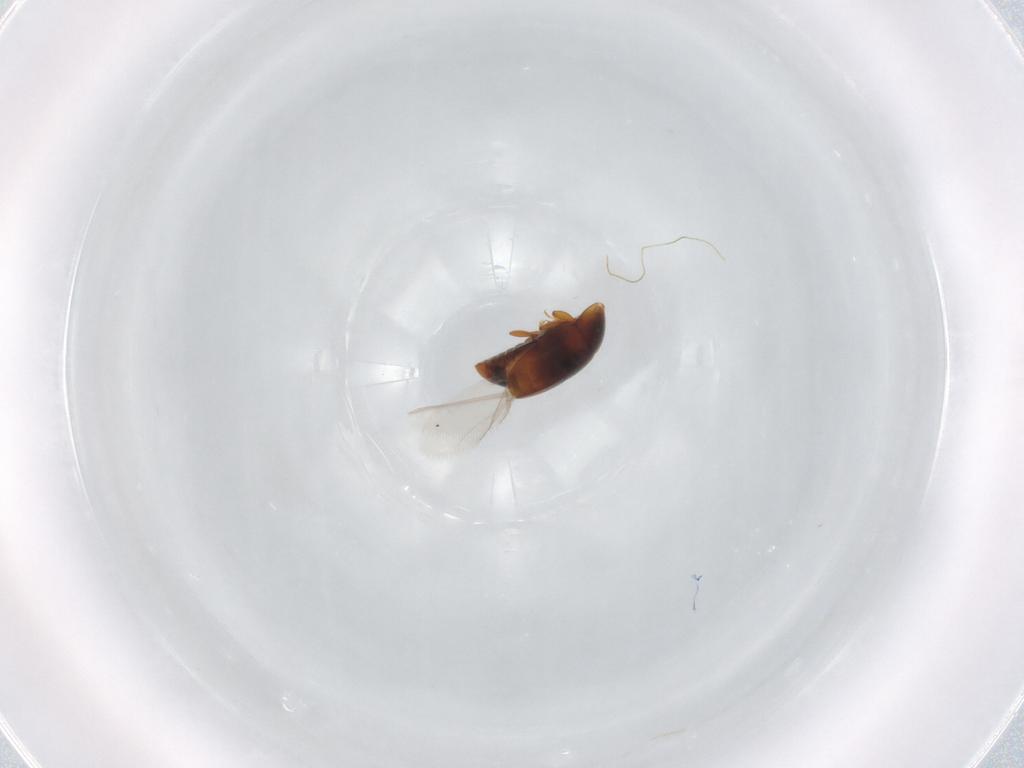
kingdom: Animalia
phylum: Arthropoda
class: Insecta
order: Coleoptera
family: Corylophidae
